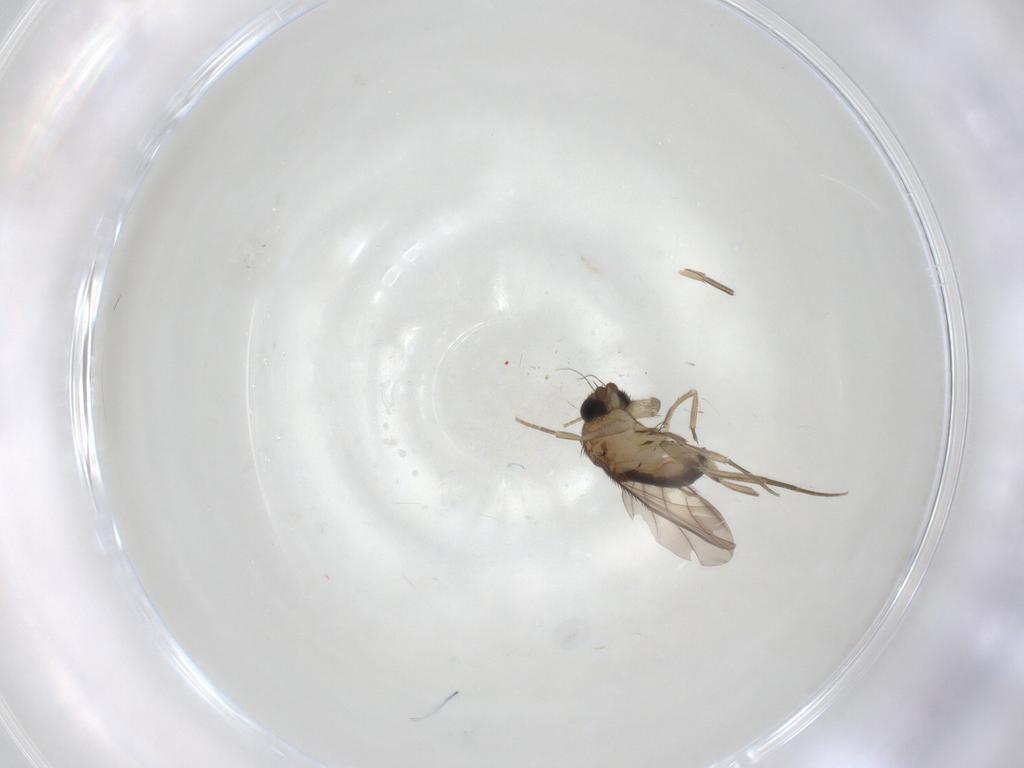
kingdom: Animalia
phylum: Arthropoda
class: Insecta
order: Diptera
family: Phoridae
